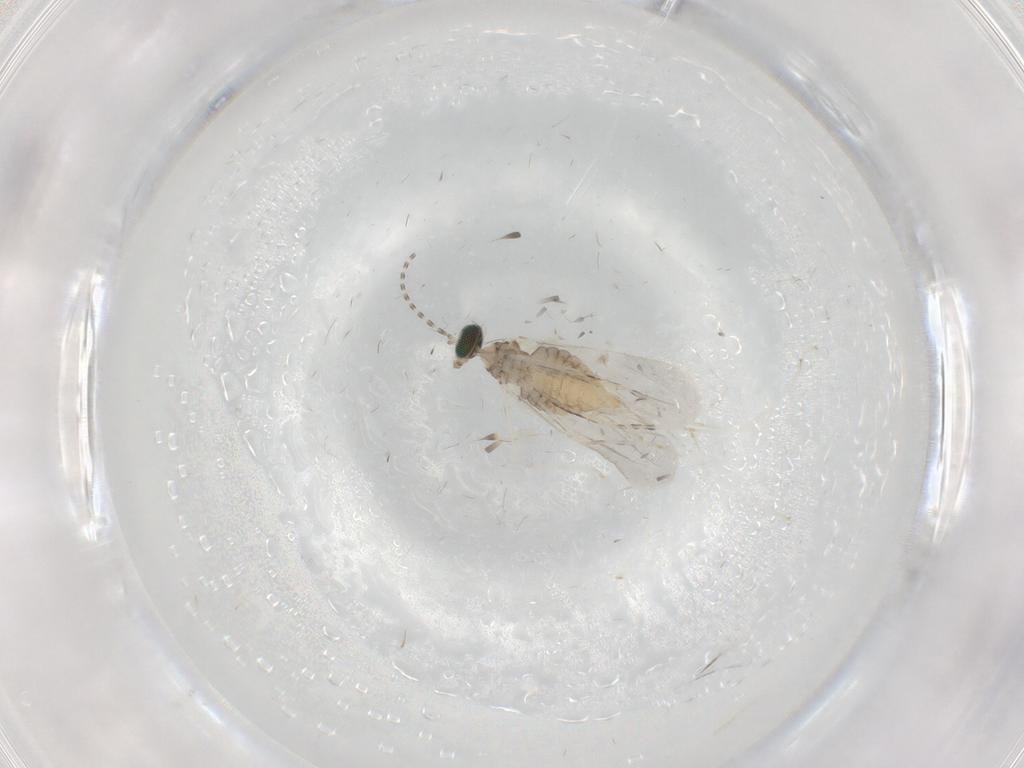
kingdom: Animalia
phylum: Arthropoda
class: Insecta
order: Diptera
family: Cecidomyiidae
